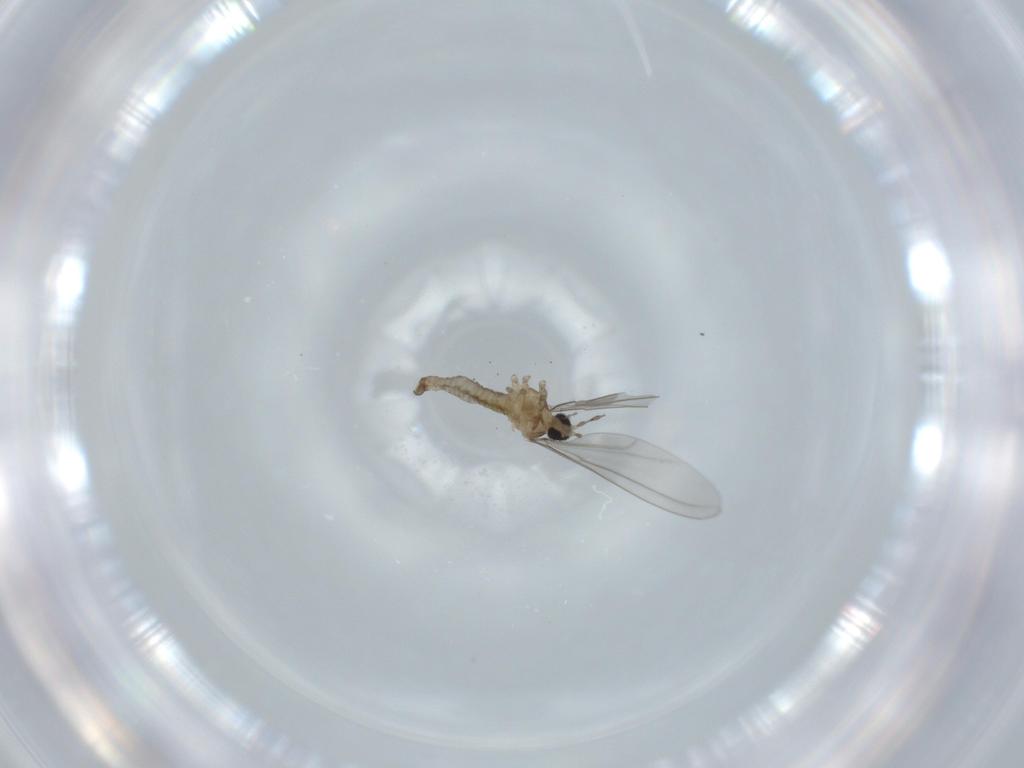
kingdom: Animalia
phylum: Arthropoda
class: Insecta
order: Diptera
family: Cecidomyiidae
